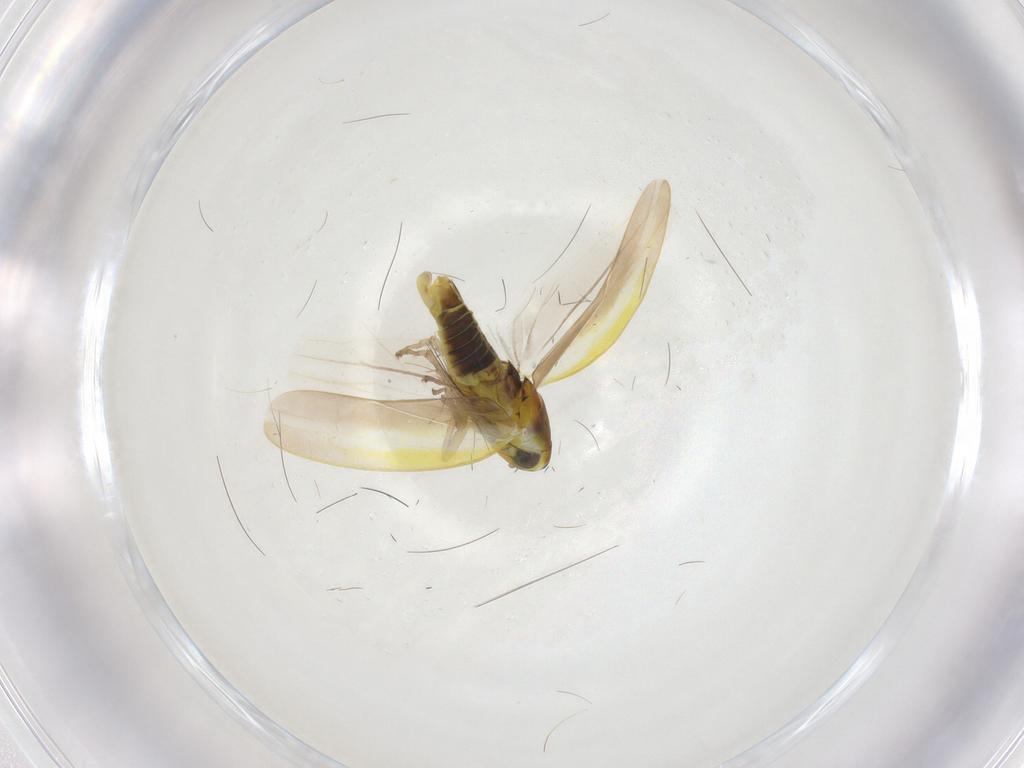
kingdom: Animalia
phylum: Arthropoda
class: Insecta
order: Hemiptera
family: Cicadellidae
